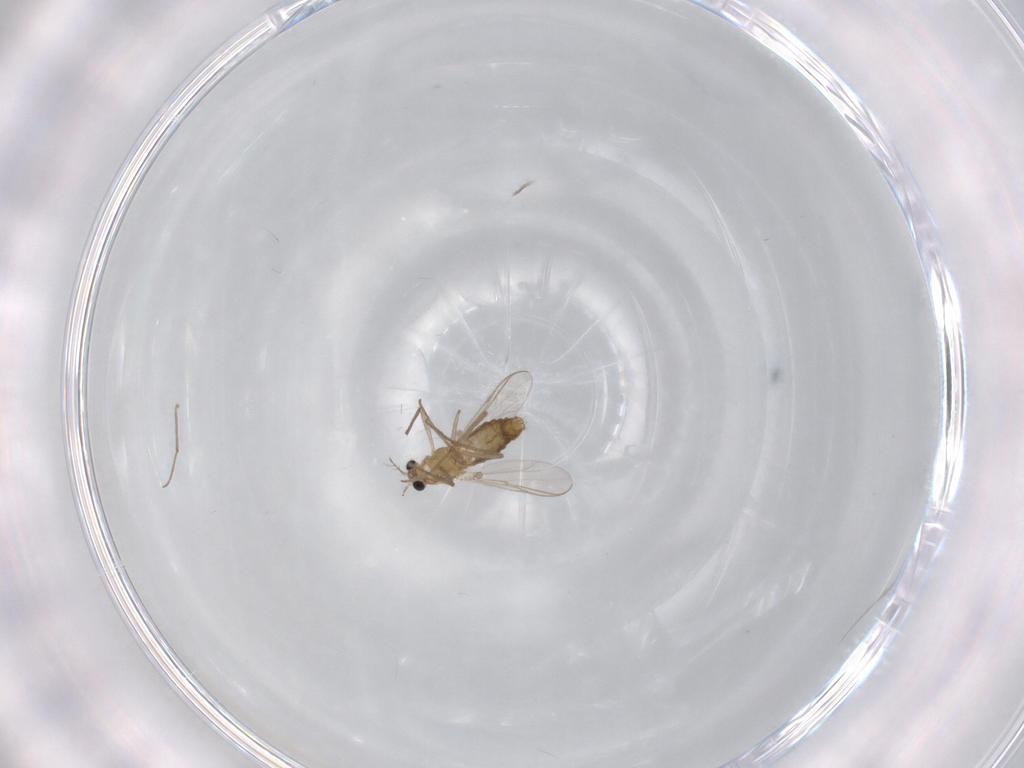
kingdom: Animalia
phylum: Arthropoda
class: Insecta
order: Diptera
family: Chironomidae
